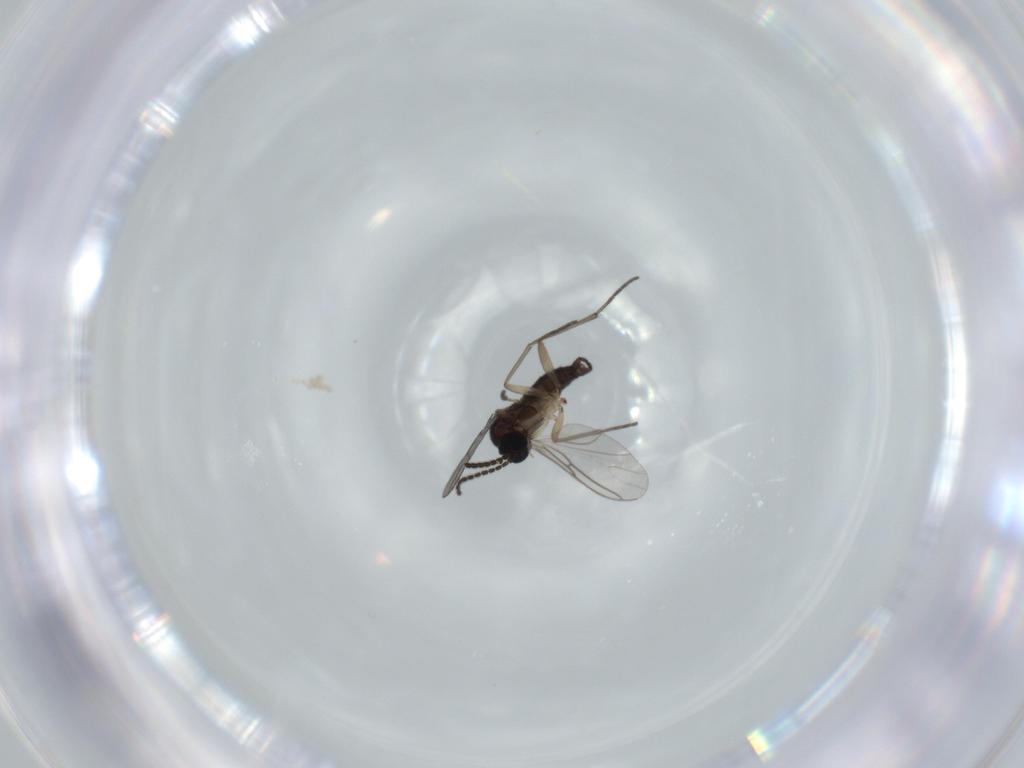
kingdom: Animalia
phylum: Arthropoda
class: Insecta
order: Diptera
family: Sciaridae
